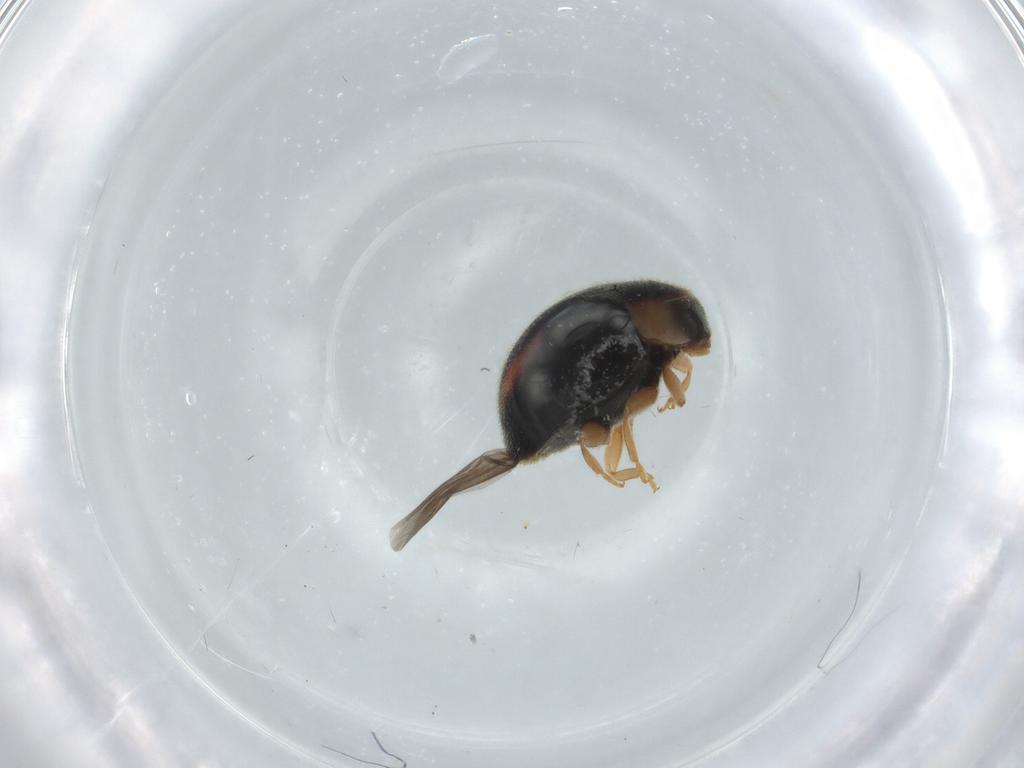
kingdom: Animalia
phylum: Arthropoda
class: Insecta
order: Coleoptera
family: Coccinellidae
